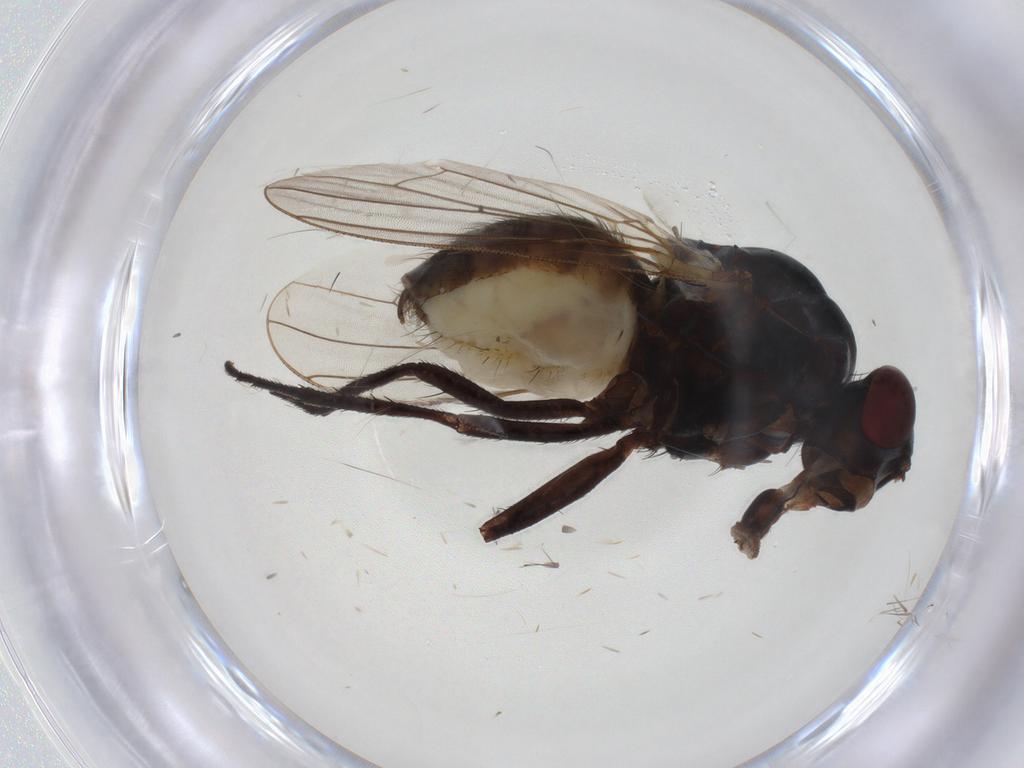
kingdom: Animalia
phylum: Arthropoda
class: Insecta
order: Diptera
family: Anthomyiidae
